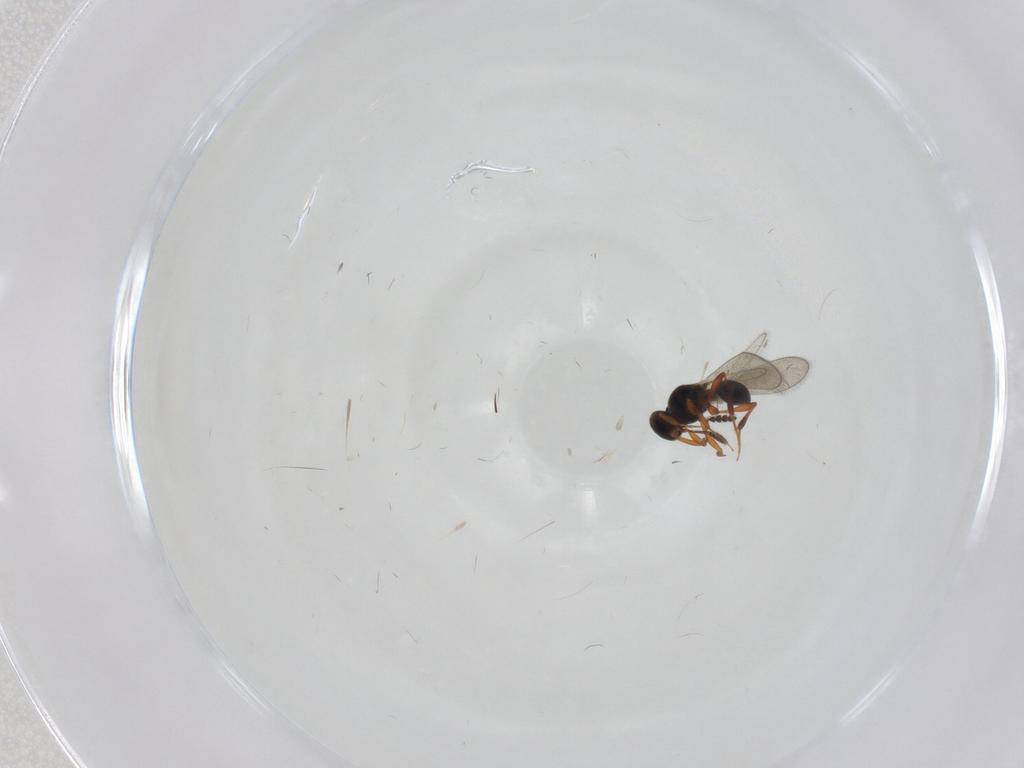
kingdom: Animalia
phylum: Arthropoda
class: Insecta
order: Hymenoptera
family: Platygastridae
